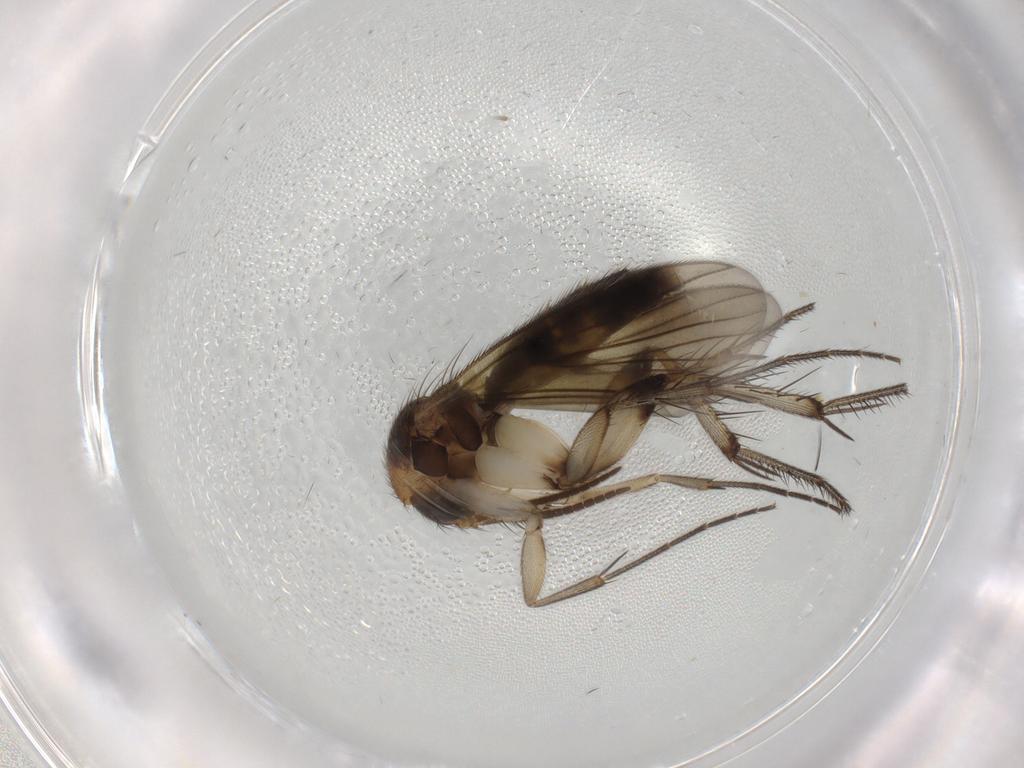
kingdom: Animalia
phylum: Arthropoda
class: Insecta
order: Diptera
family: Mycetophilidae
